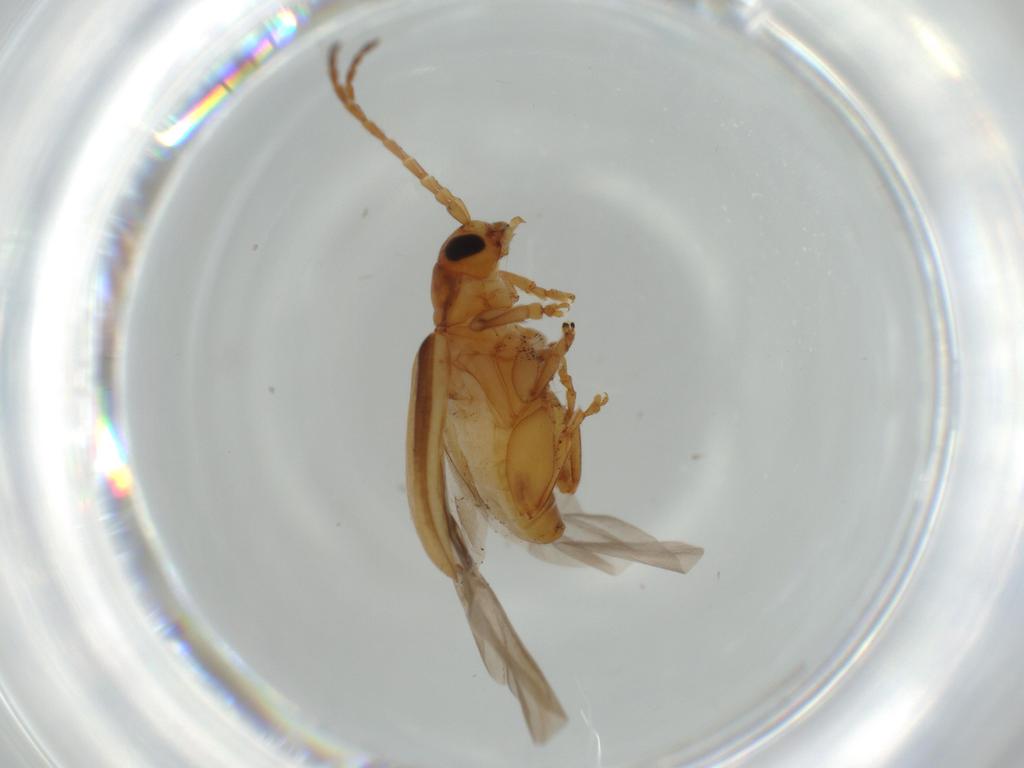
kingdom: Animalia
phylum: Arthropoda
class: Insecta
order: Coleoptera
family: Chrysomelidae
